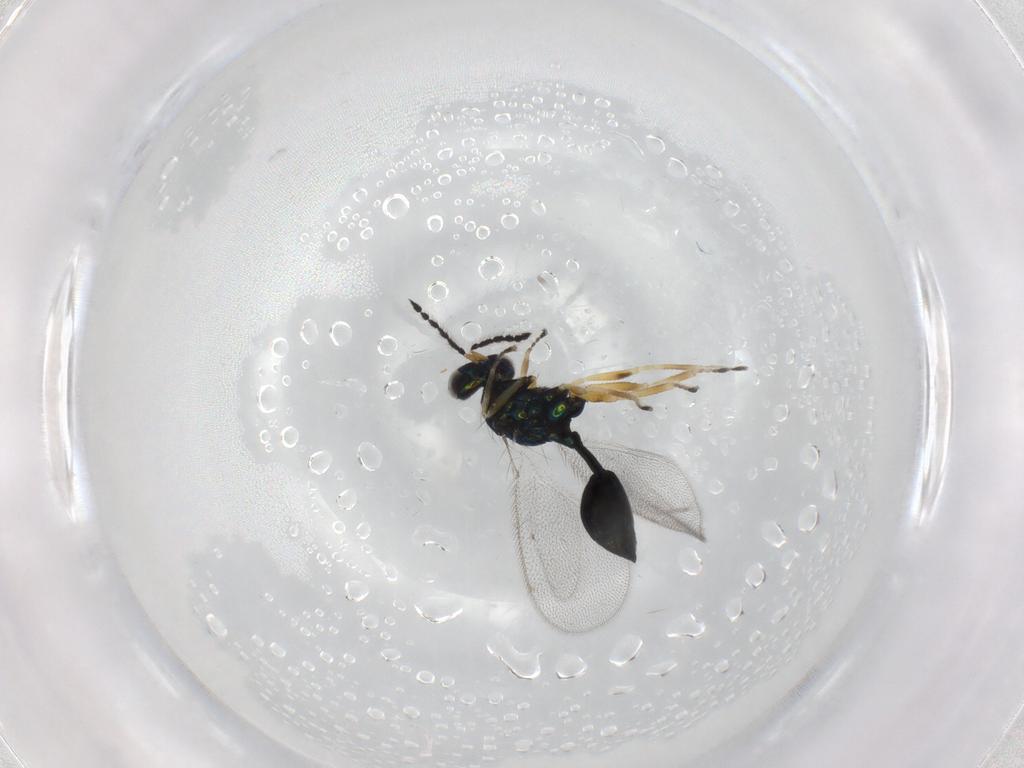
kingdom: Animalia
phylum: Arthropoda
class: Insecta
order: Hymenoptera
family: Eulophidae
